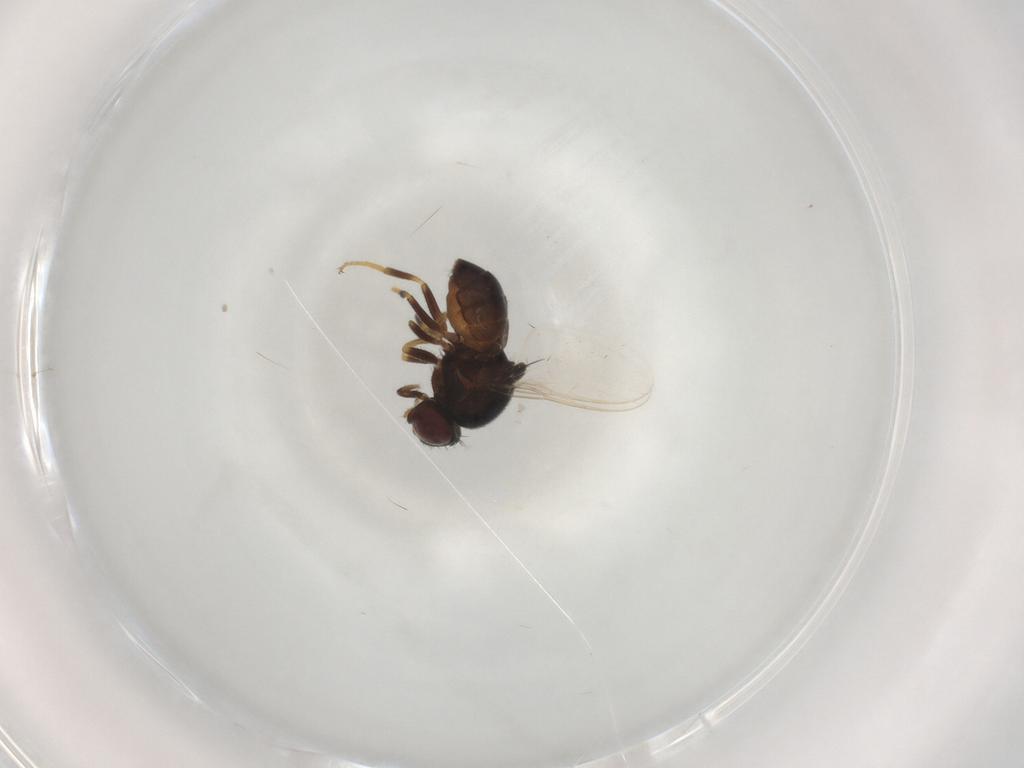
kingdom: Animalia
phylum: Arthropoda
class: Insecta
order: Diptera
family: Chloropidae
